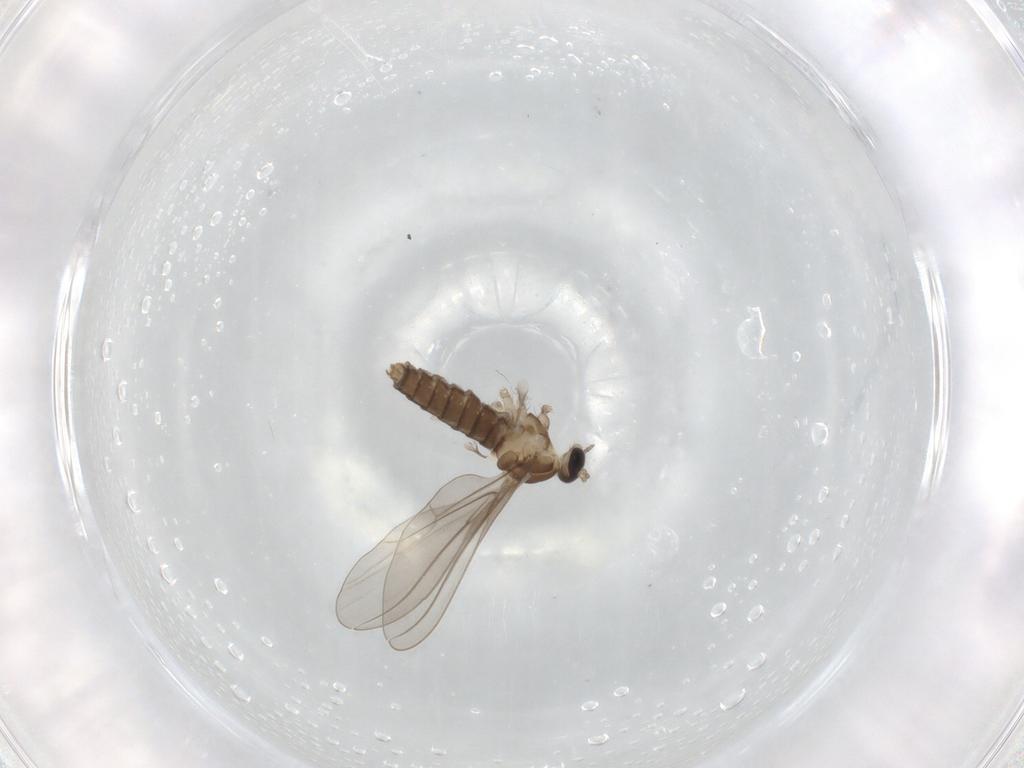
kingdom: Animalia
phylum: Arthropoda
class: Insecta
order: Diptera
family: Cecidomyiidae
